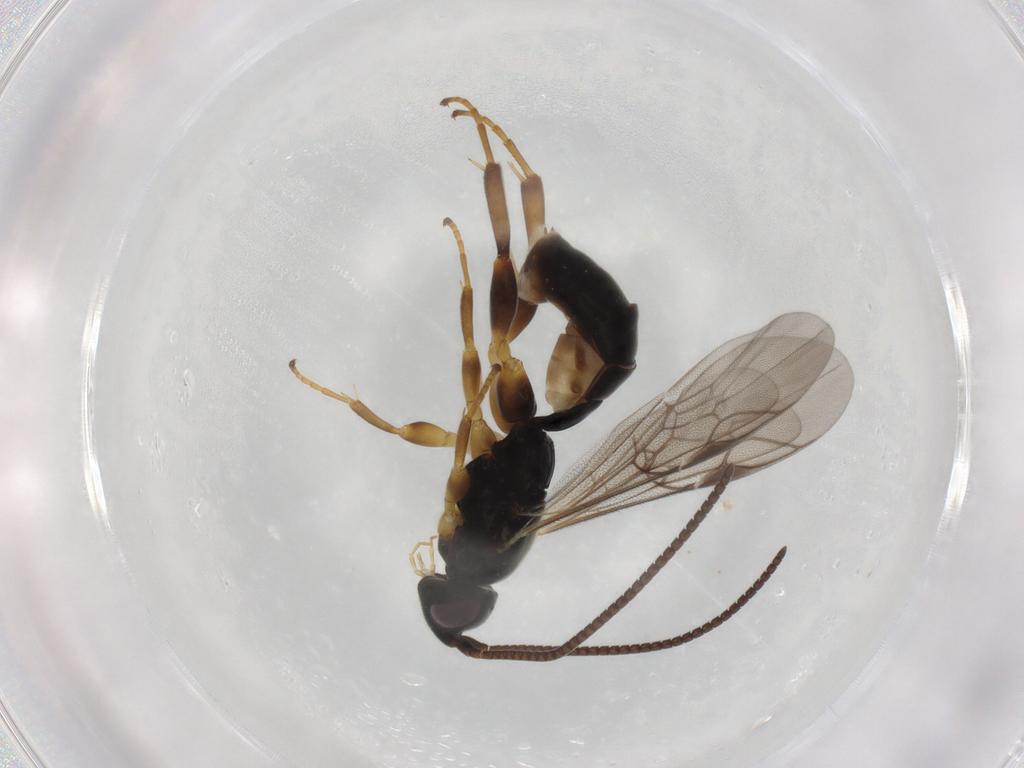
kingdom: Animalia
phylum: Arthropoda
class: Insecta
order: Hymenoptera
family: Ichneumonidae
